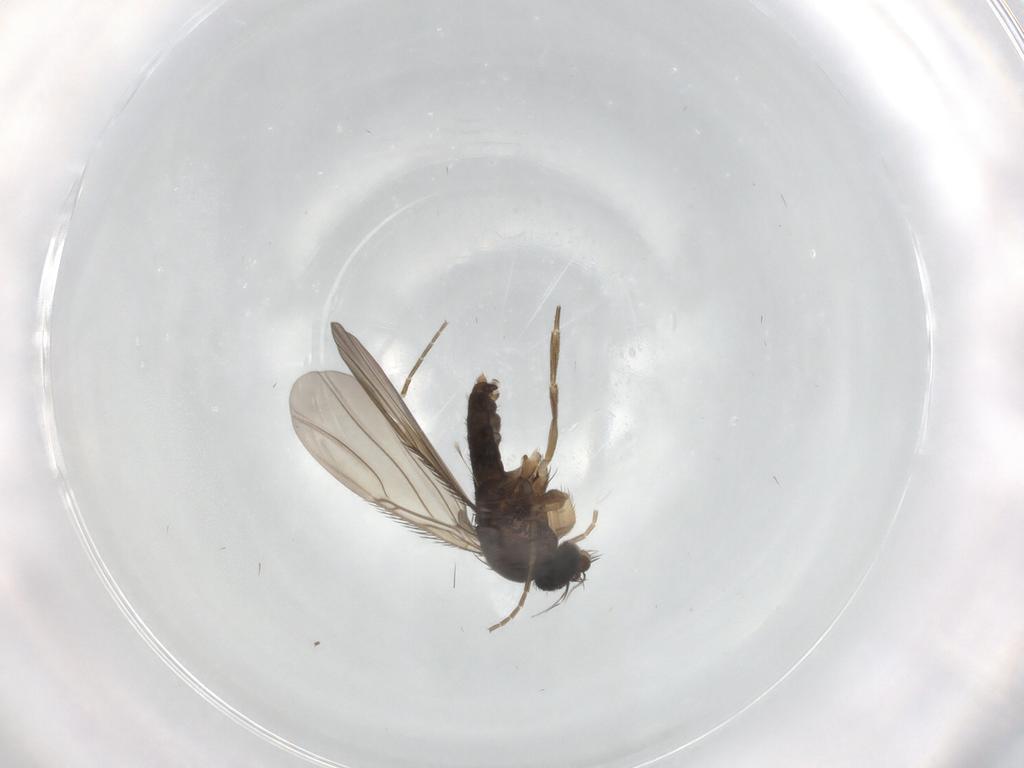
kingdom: Animalia
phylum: Arthropoda
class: Insecta
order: Diptera
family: Phoridae
